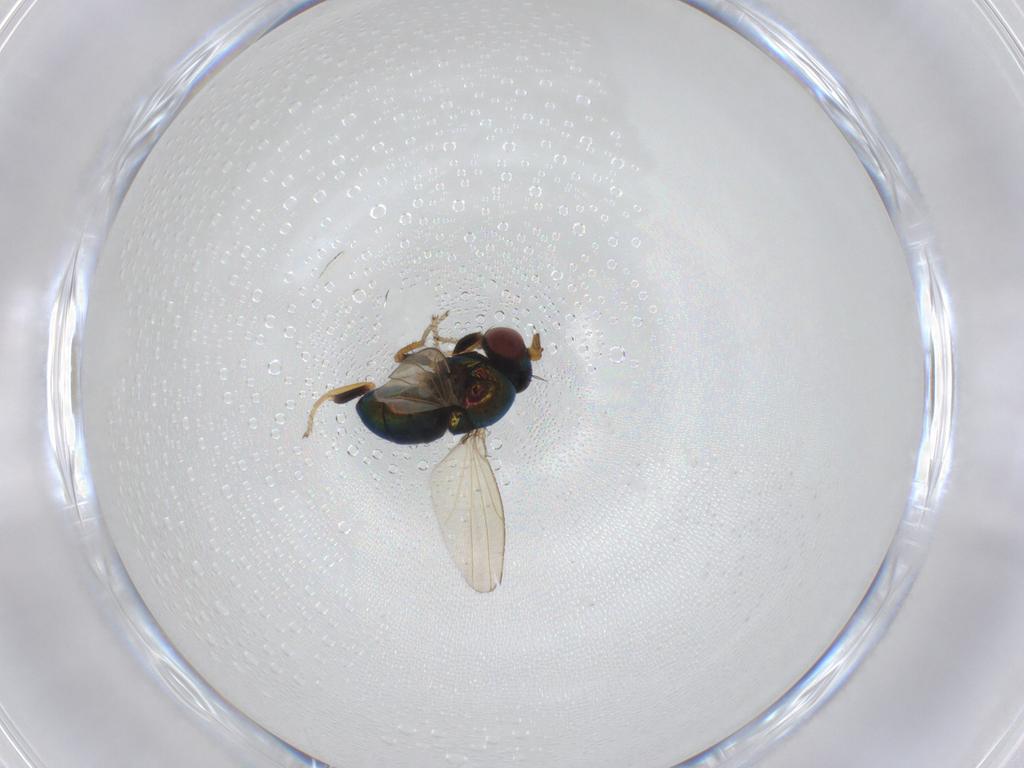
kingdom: Animalia
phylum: Arthropoda
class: Insecta
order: Diptera
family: Ephydridae
